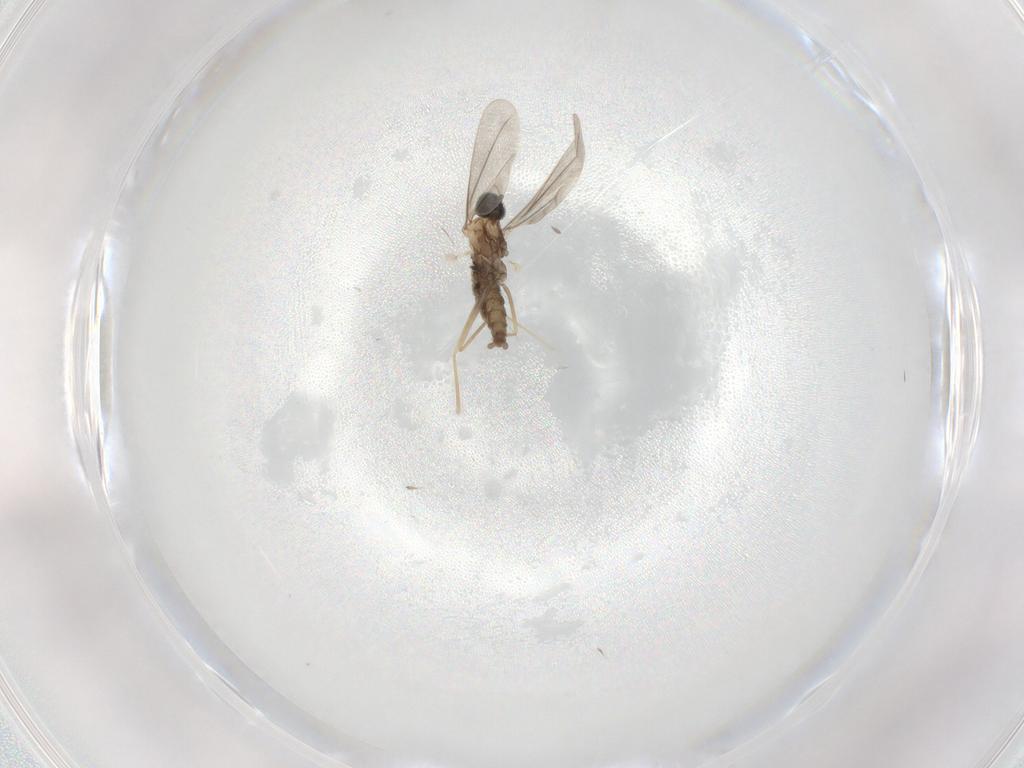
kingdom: Animalia
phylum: Arthropoda
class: Insecta
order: Diptera
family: Cecidomyiidae
